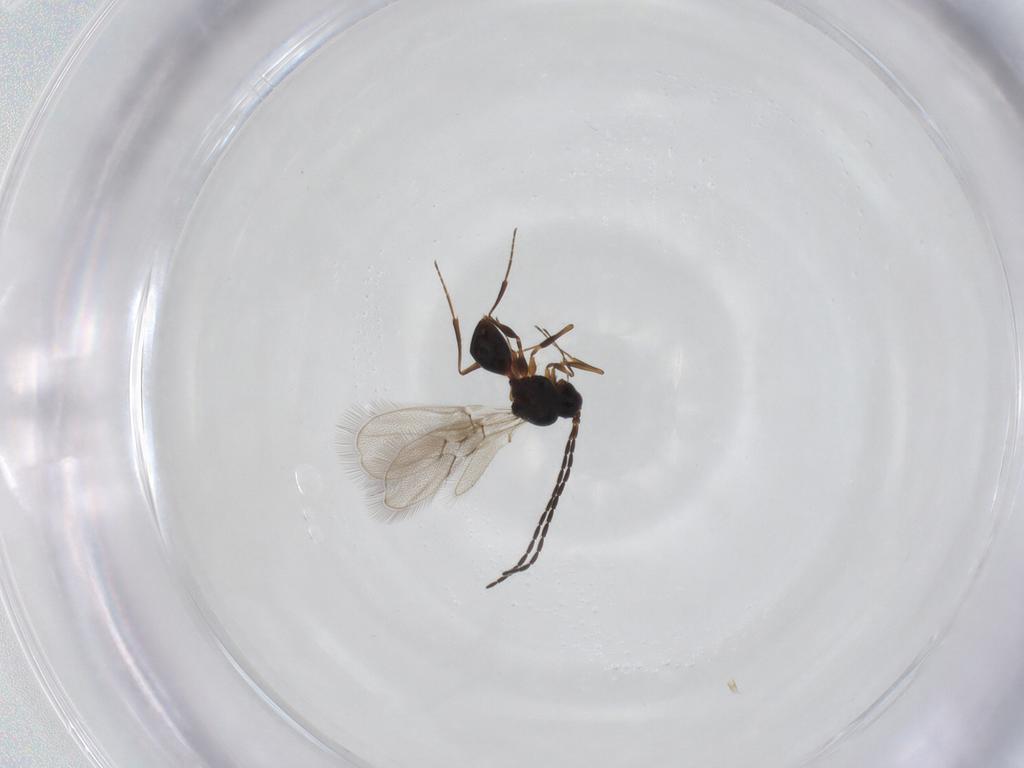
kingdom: Animalia
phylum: Arthropoda
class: Insecta
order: Hymenoptera
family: Figitidae
